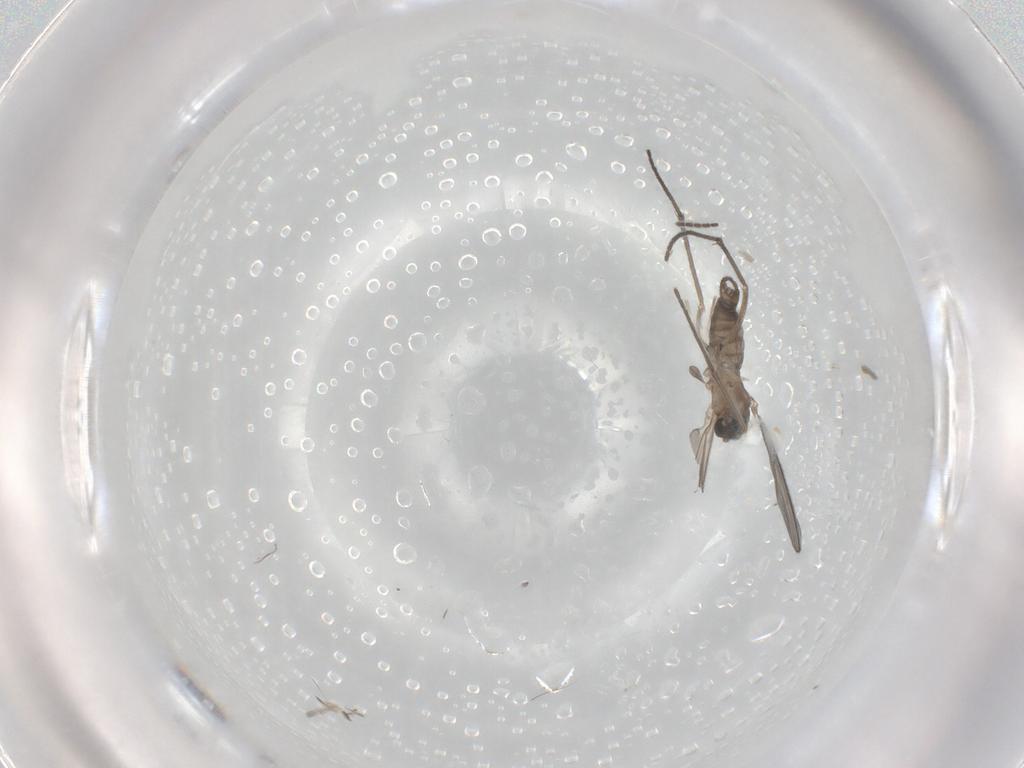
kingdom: Animalia
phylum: Arthropoda
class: Insecta
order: Diptera
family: Sciaridae
